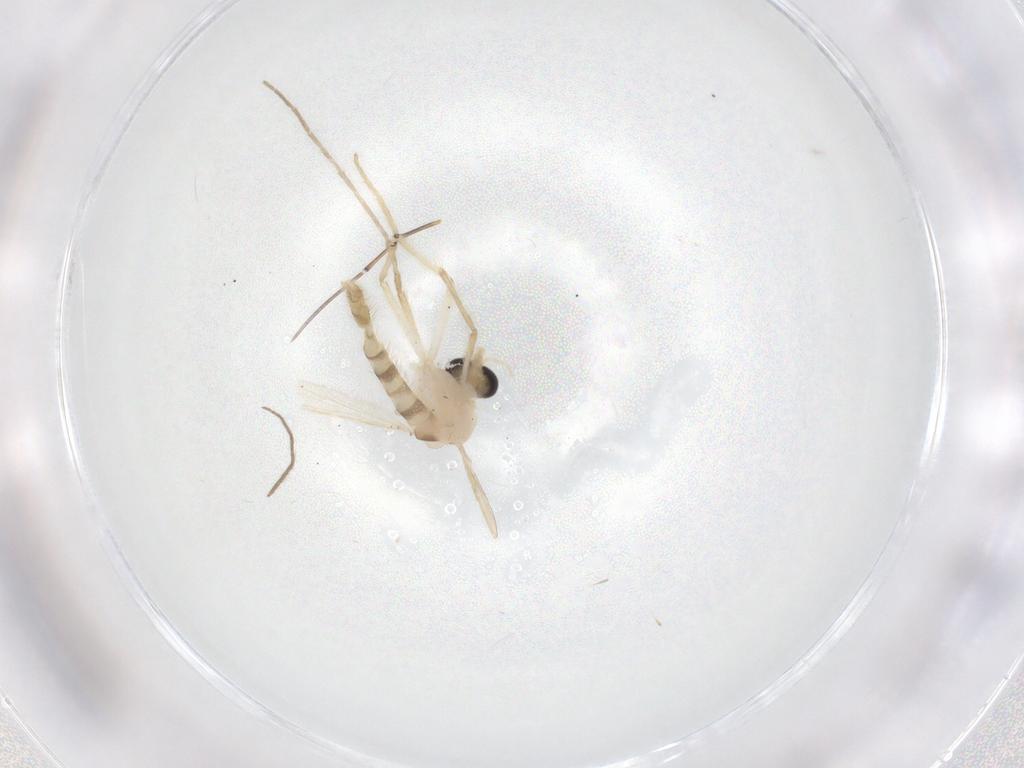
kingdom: Animalia
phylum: Arthropoda
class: Insecta
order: Diptera
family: Chironomidae
